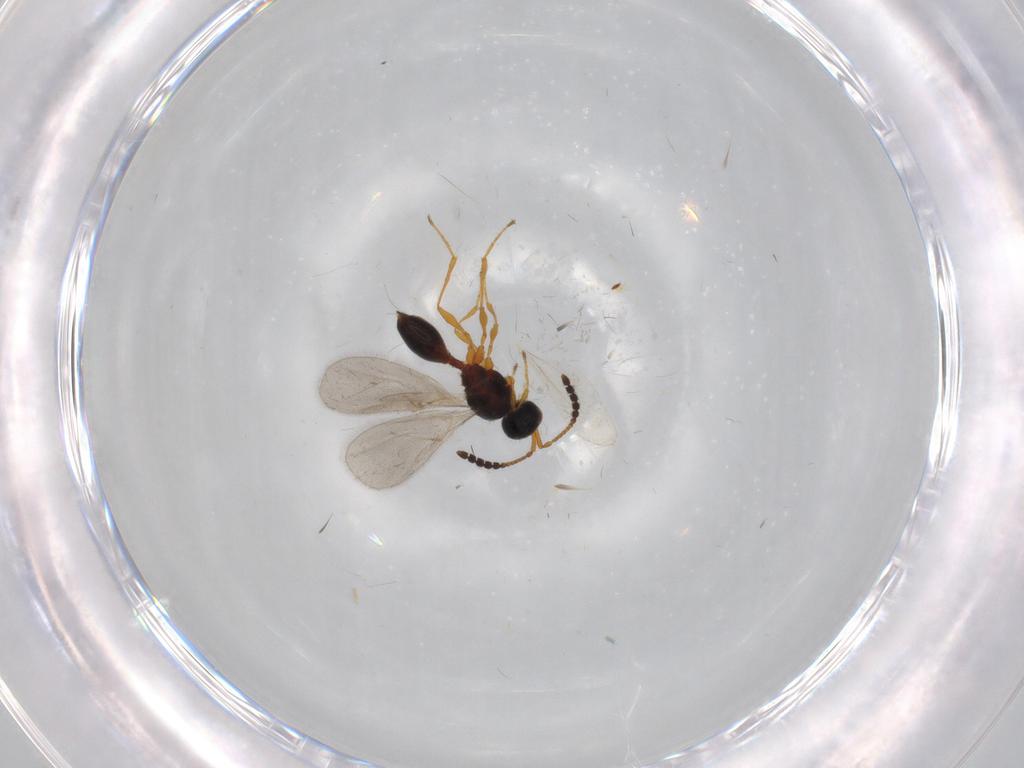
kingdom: Animalia
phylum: Arthropoda
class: Insecta
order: Hymenoptera
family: Diapriidae
